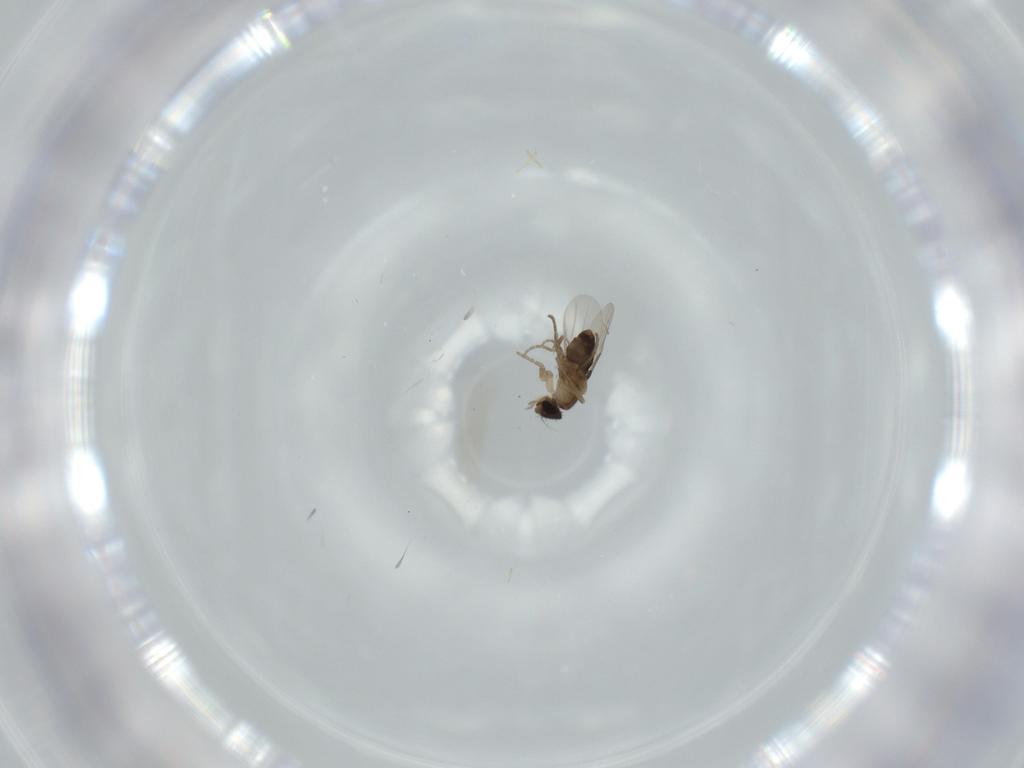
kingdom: Animalia
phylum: Arthropoda
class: Insecta
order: Diptera
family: Phoridae
